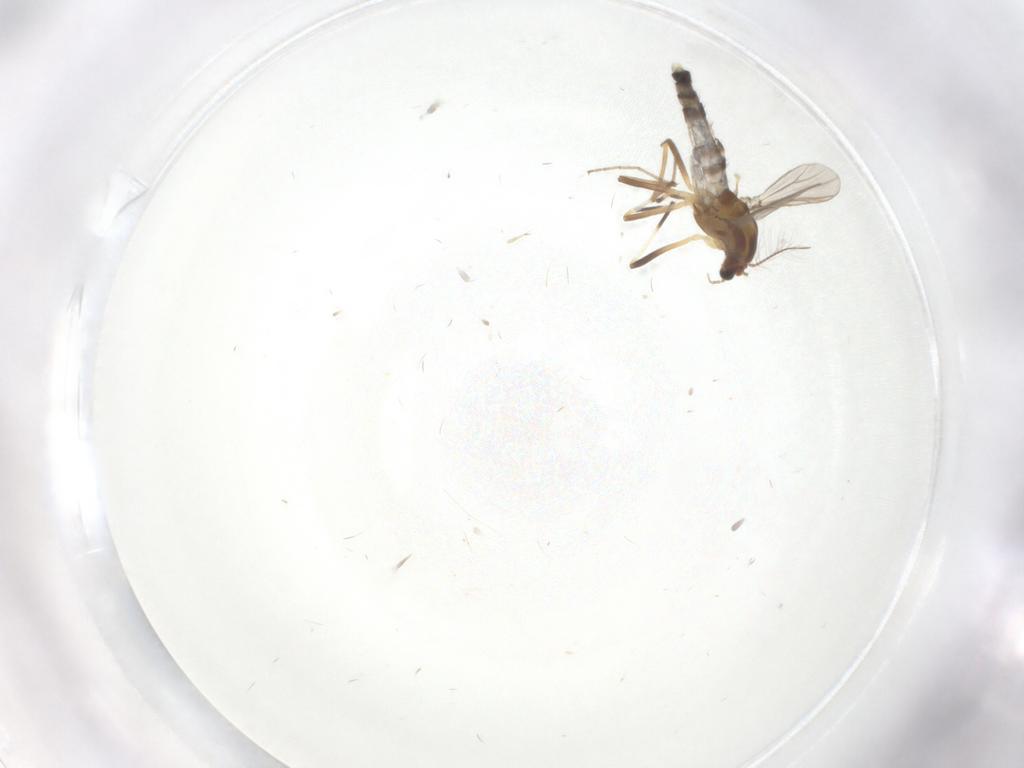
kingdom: Animalia
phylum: Arthropoda
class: Insecta
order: Diptera
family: Chironomidae
